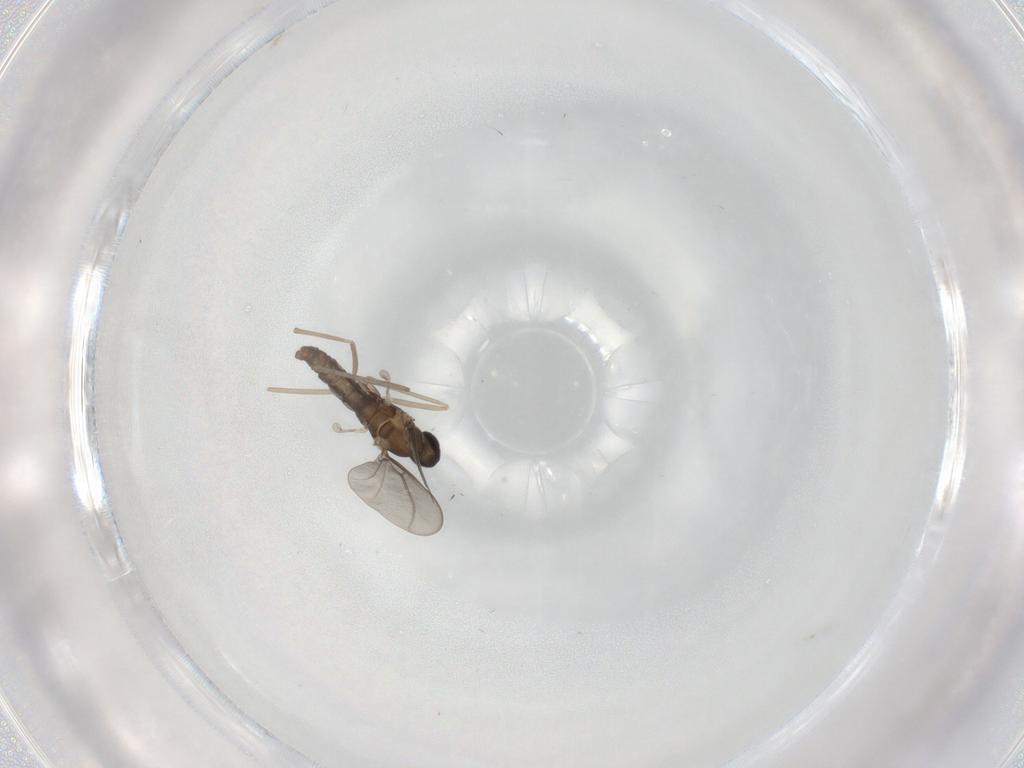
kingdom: Animalia
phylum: Arthropoda
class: Insecta
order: Diptera
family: Cecidomyiidae
